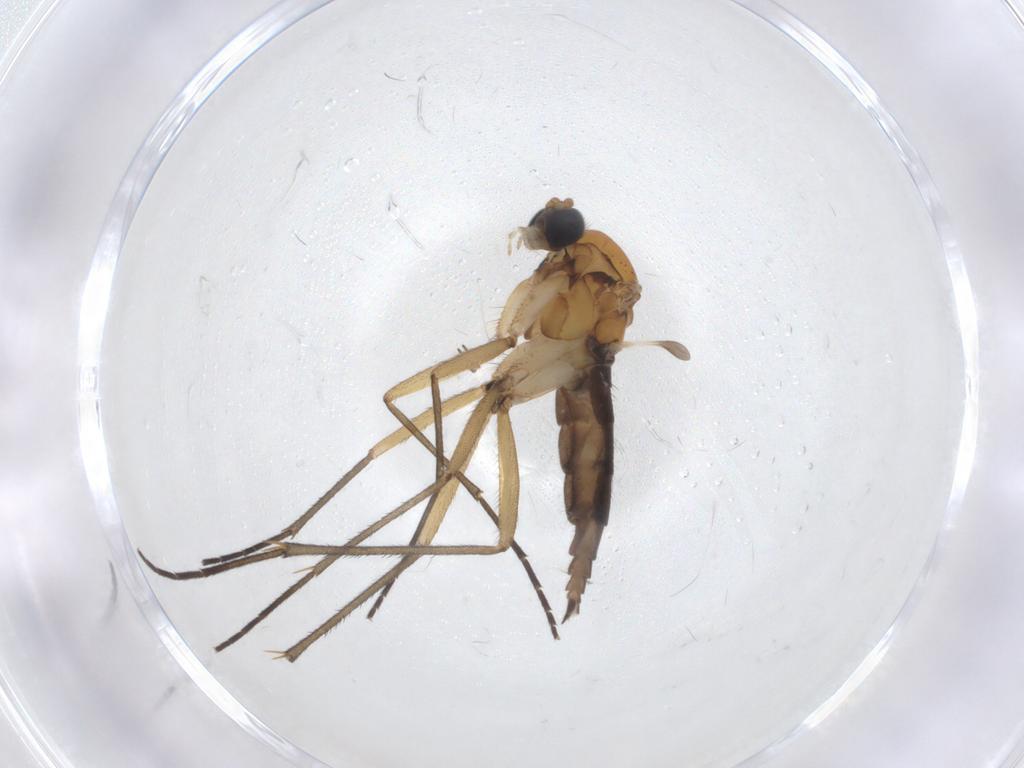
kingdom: Animalia
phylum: Arthropoda
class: Insecta
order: Diptera
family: Sciaridae
